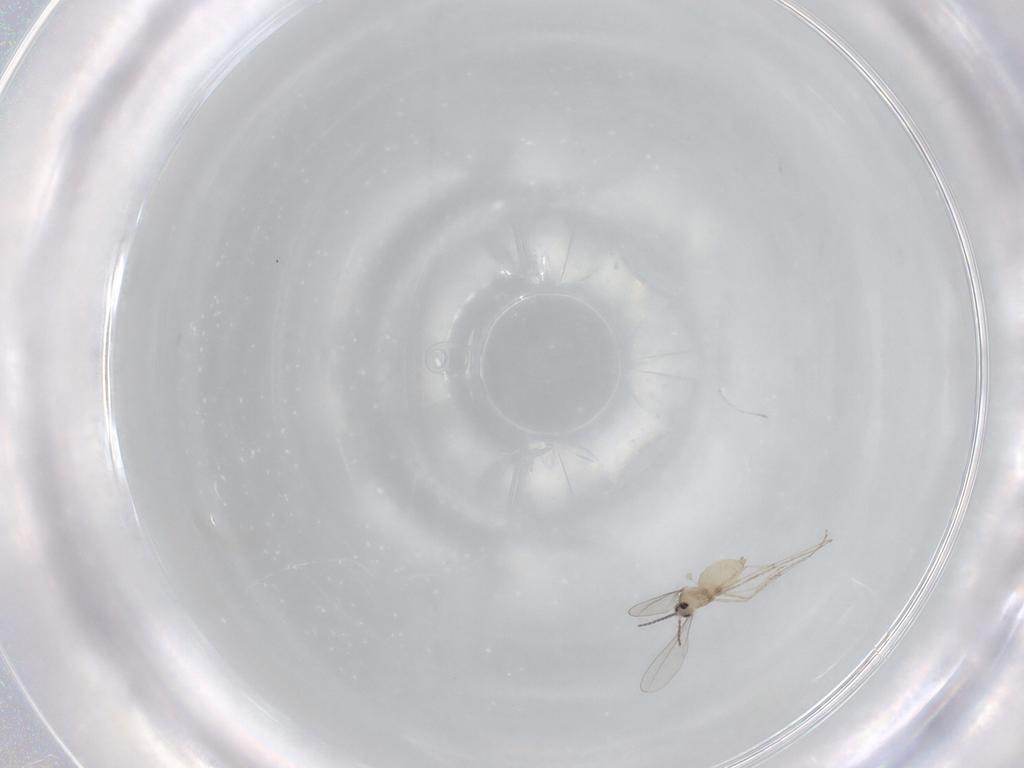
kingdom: Animalia
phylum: Arthropoda
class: Insecta
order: Diptera
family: Cecidomyiidae
